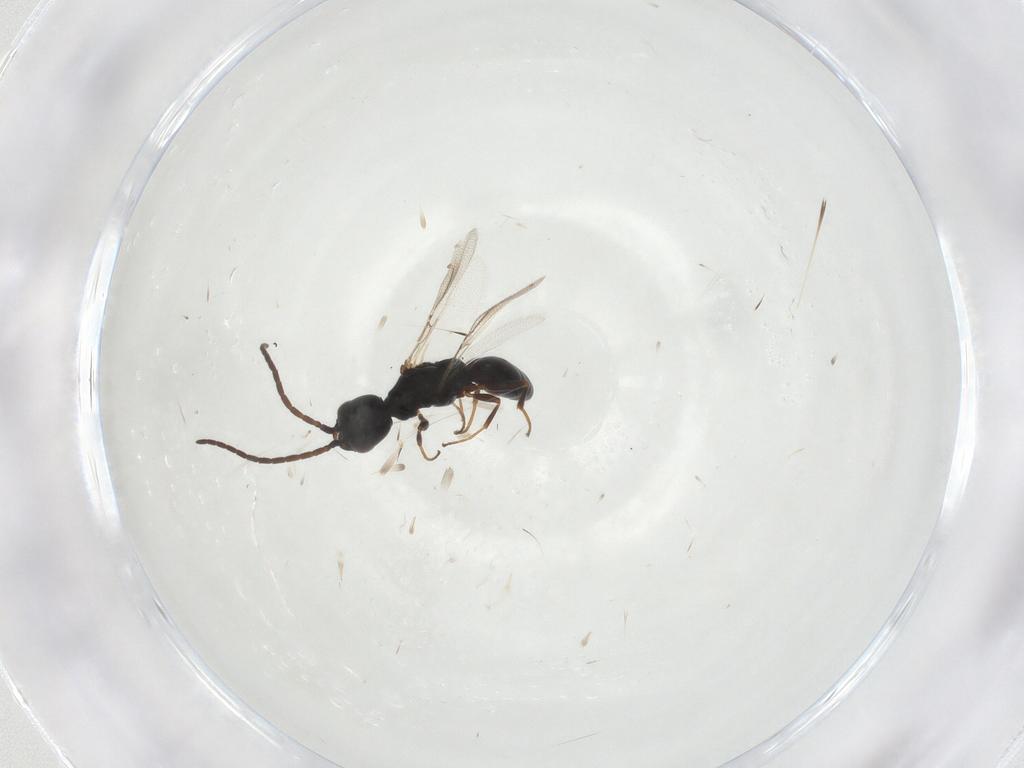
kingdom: Animalia
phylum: Arthropoda
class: Insecta
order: Hymenoptera
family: Bethylidae
